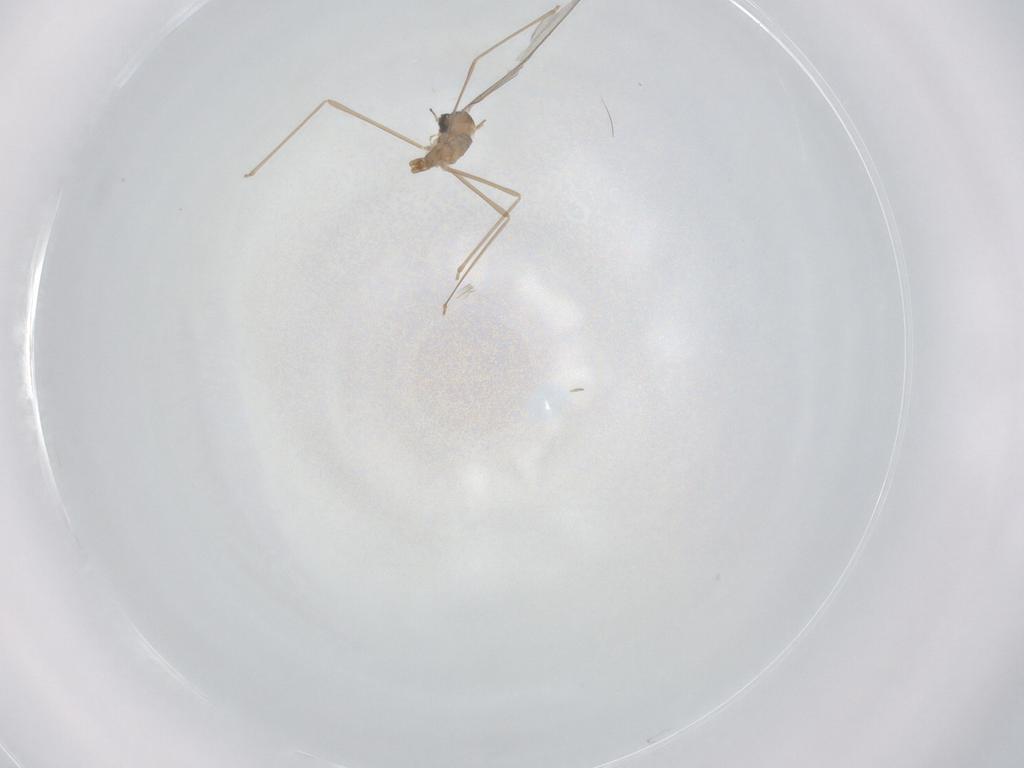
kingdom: Animalia
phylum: Arthropoda
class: Insecta
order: Diptera
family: Cecidomyiidae
